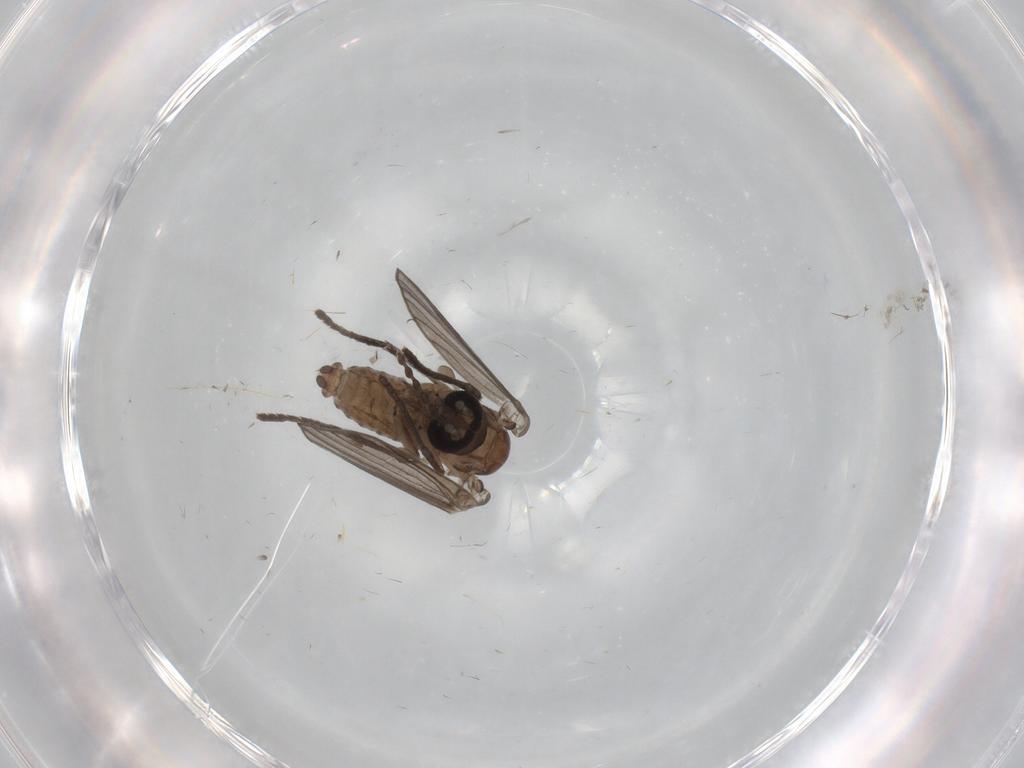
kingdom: Animalia
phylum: Arthropoda
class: Insecta
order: Diptera
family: Psychodidae
